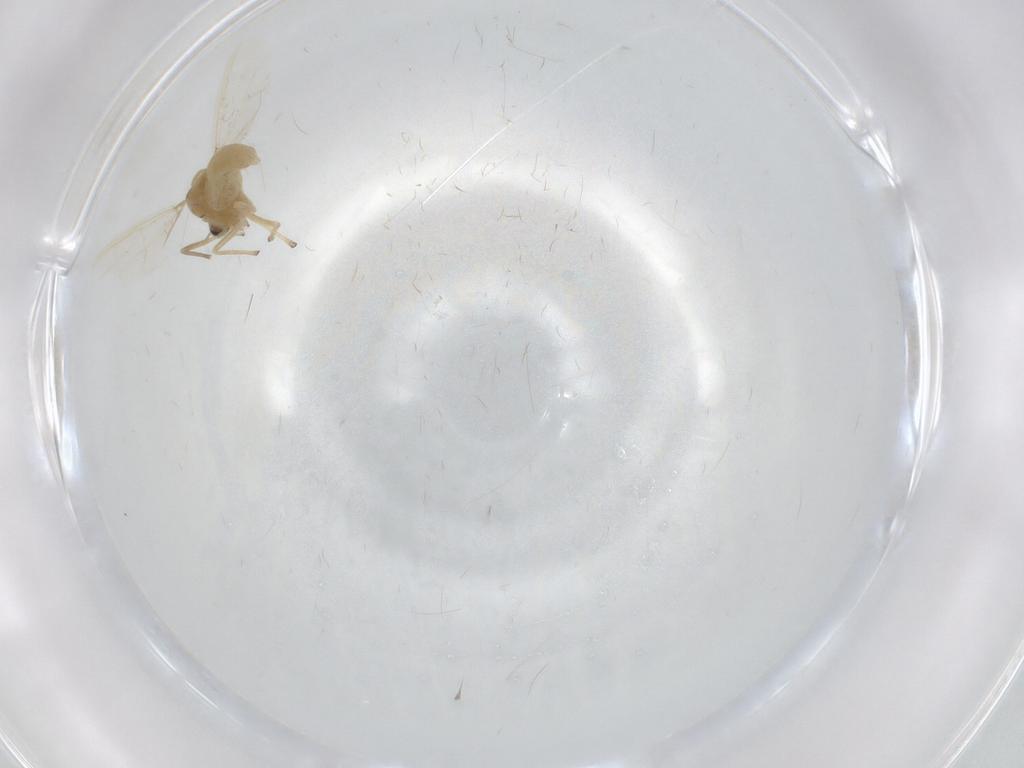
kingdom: Animalia
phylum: Arthropoda
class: Insecta
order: Diptera
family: Chironomidae
